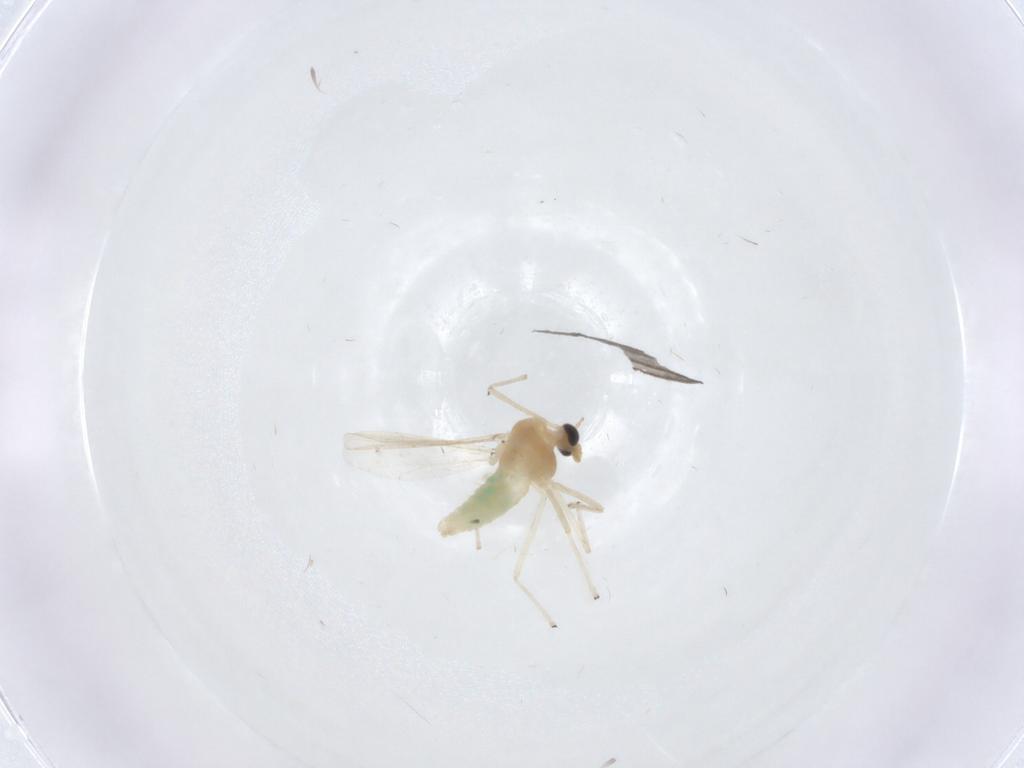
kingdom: Animalia
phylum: Arthropoda
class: Insecta
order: Diptera
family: Chironomidae
